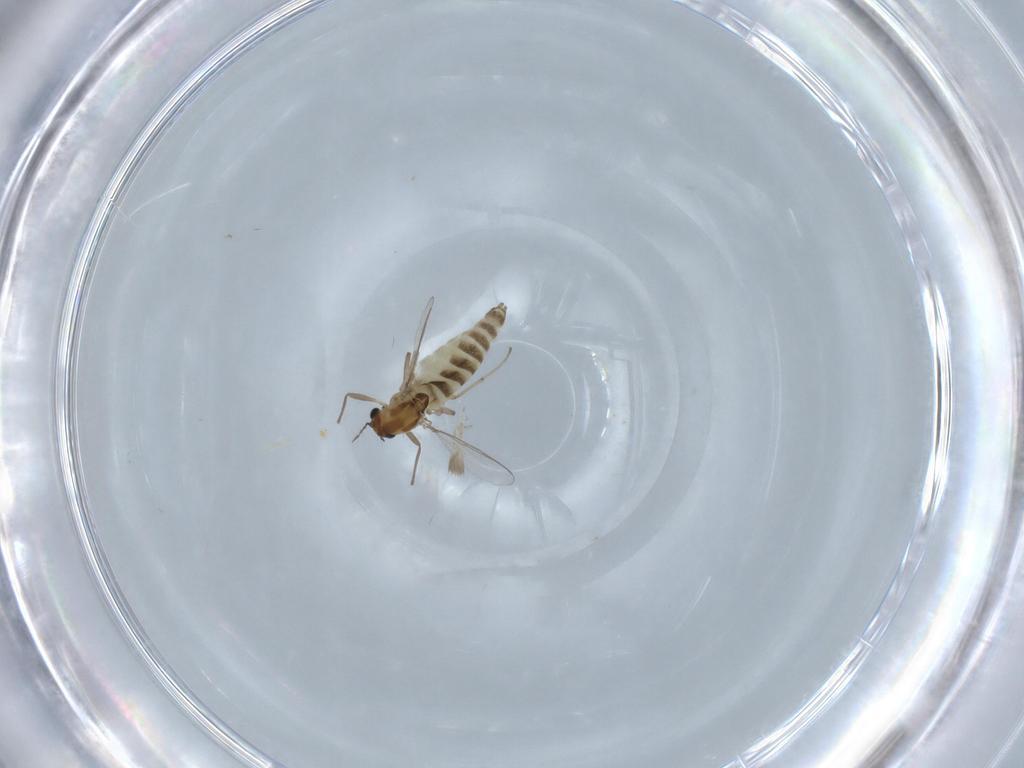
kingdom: Animalia
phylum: Arthropoda
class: Insecta
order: Diptera
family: Chironomidae
